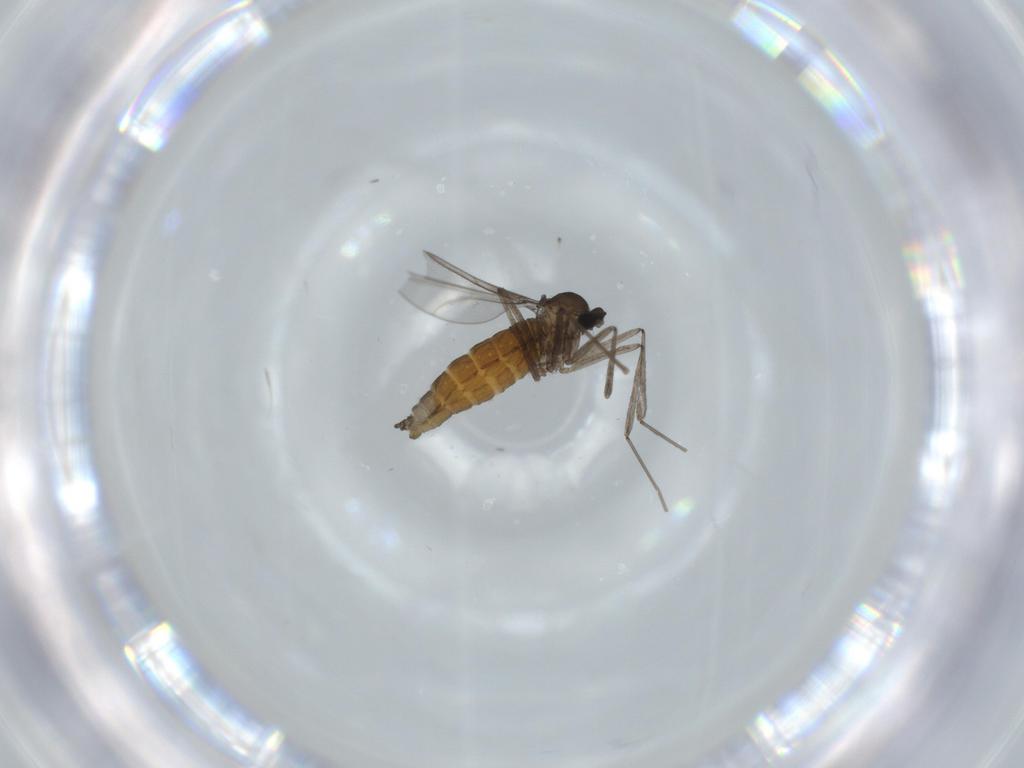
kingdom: Animalia
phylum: Arthropoda
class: Insecta
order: Diptera
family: Cecidomyiidae
